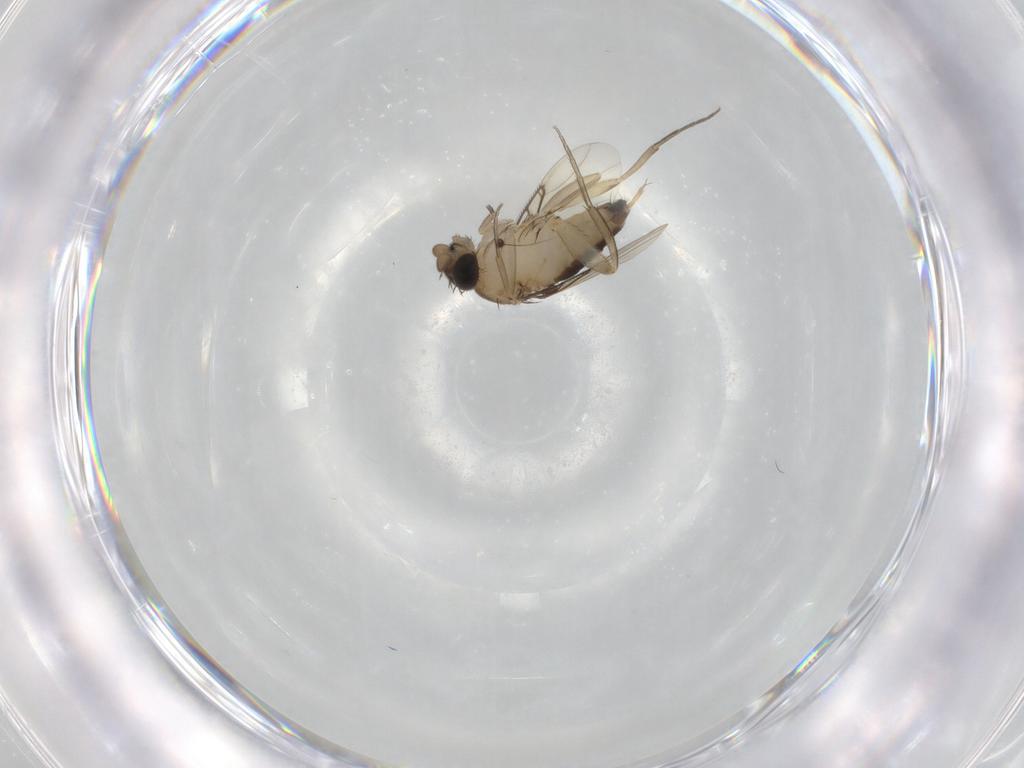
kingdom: Animalia
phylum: Arthropoda
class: Insecta
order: Diptera
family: Phoridae
